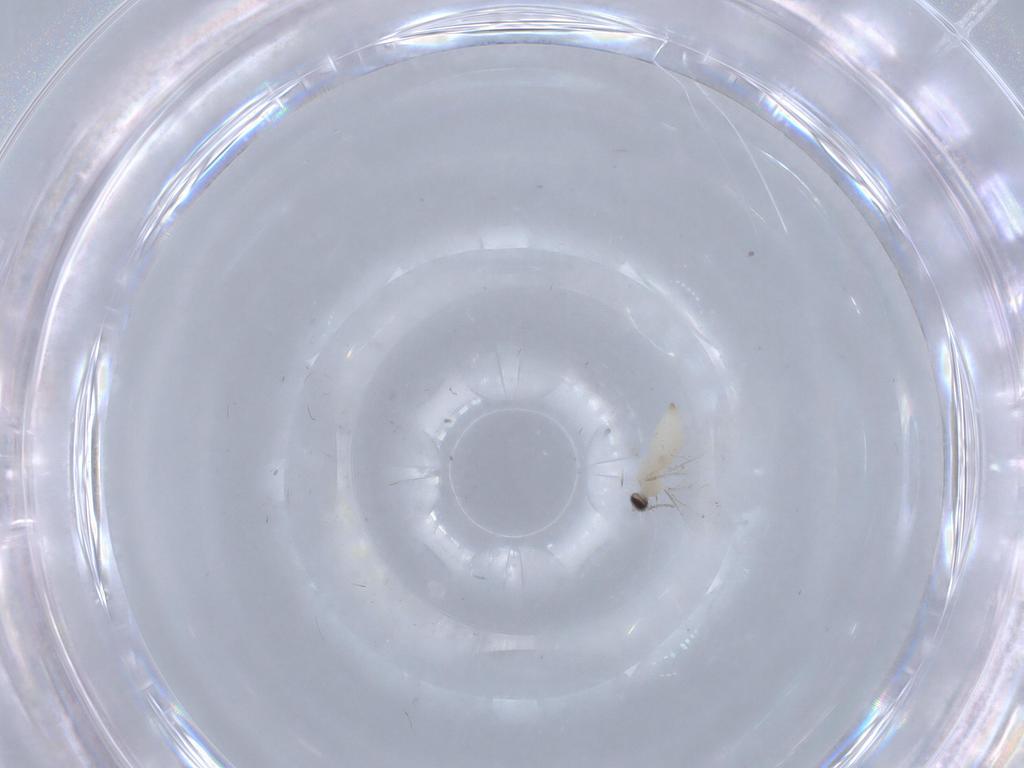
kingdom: Animalia
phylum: Arthropoda
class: Insecta
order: Diptera
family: Cecidomyiidae
